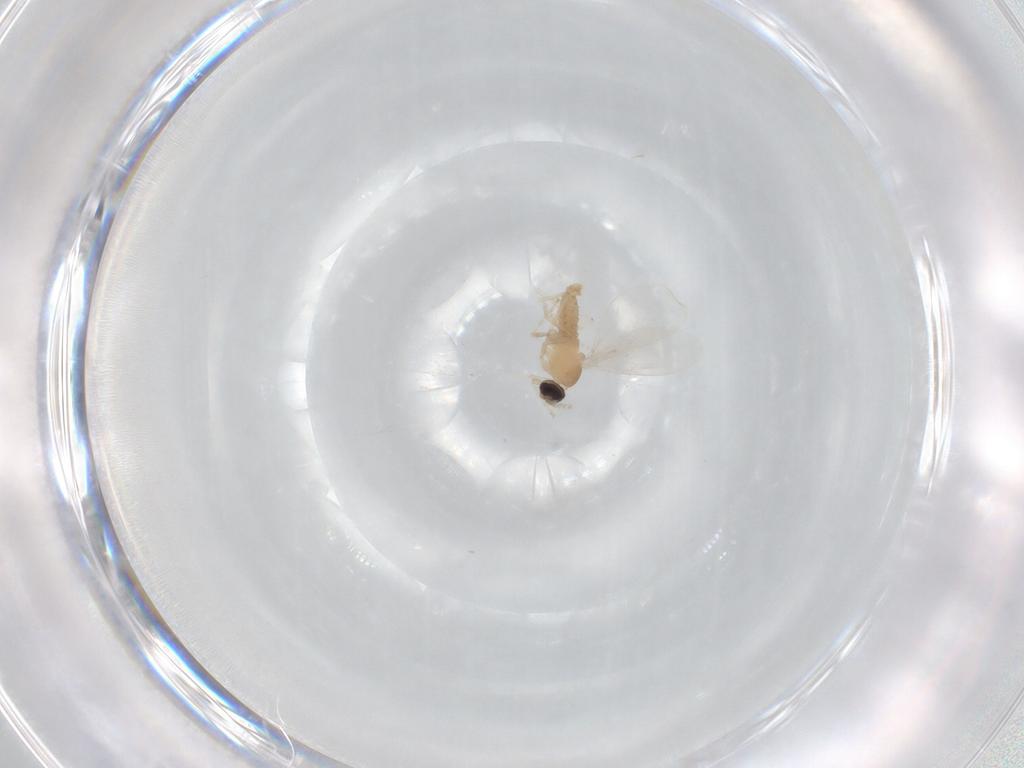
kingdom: Animalia
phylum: Arthropoda
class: Insecta
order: Diptera
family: Cecidomyiidae
